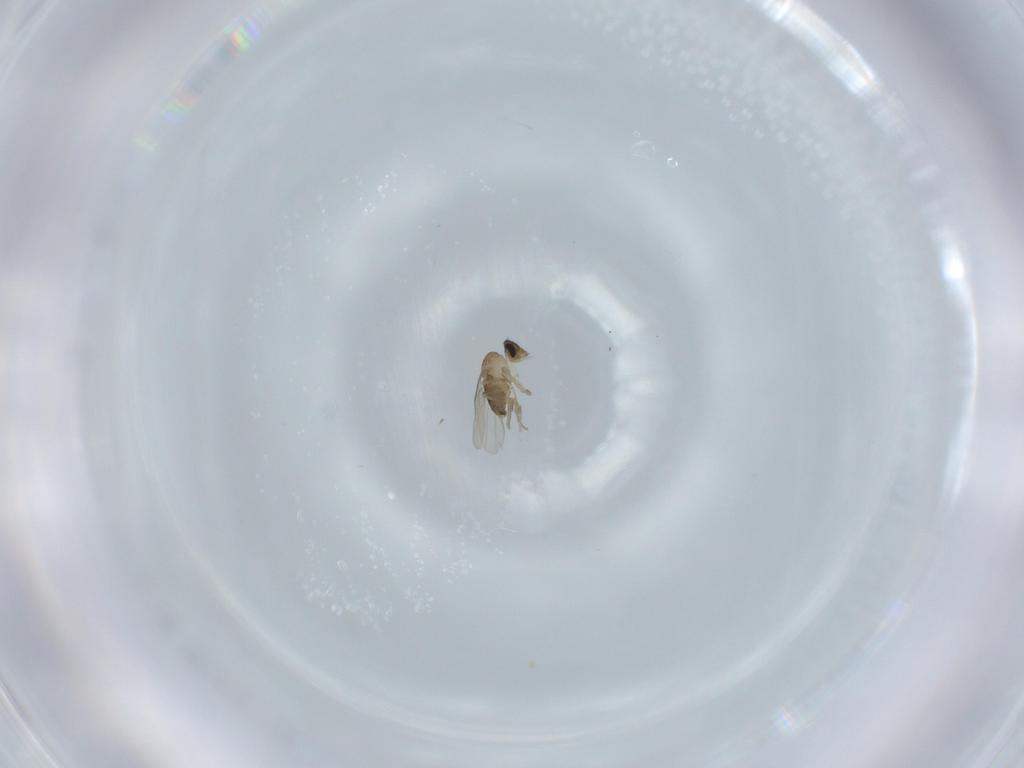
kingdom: Animalia
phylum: Arthropoda
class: Insecta
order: Diptera
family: Phoridae
